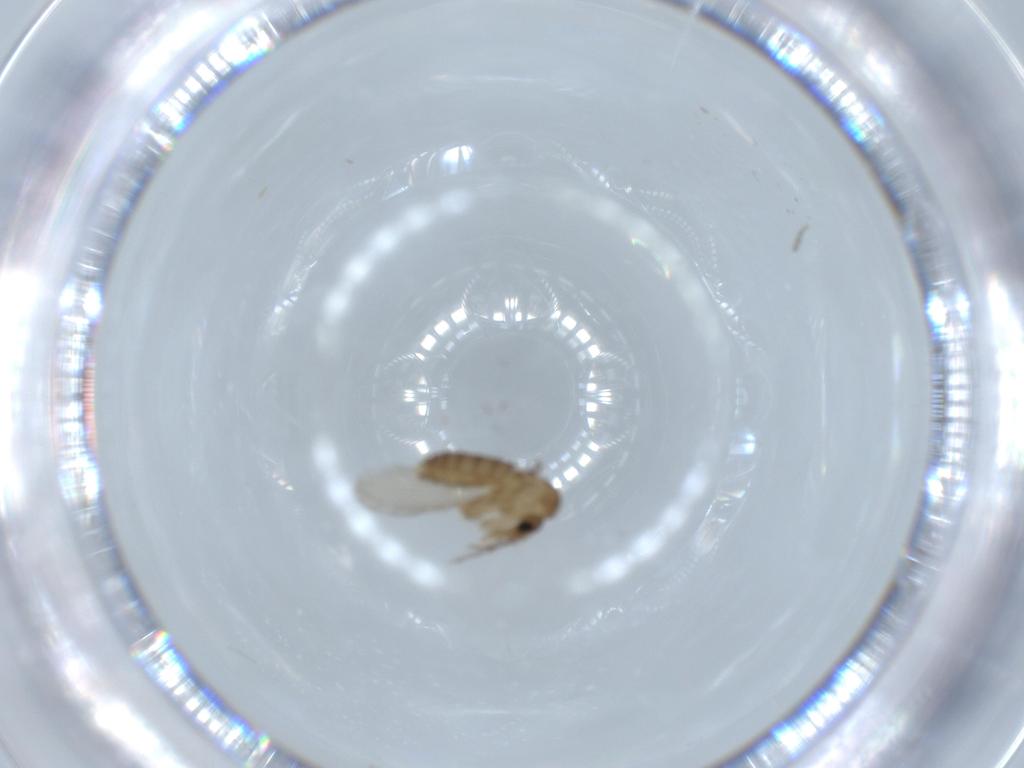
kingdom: Animalia
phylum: Arthropoda
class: Insecta
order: Diptera
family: Psychodidae
